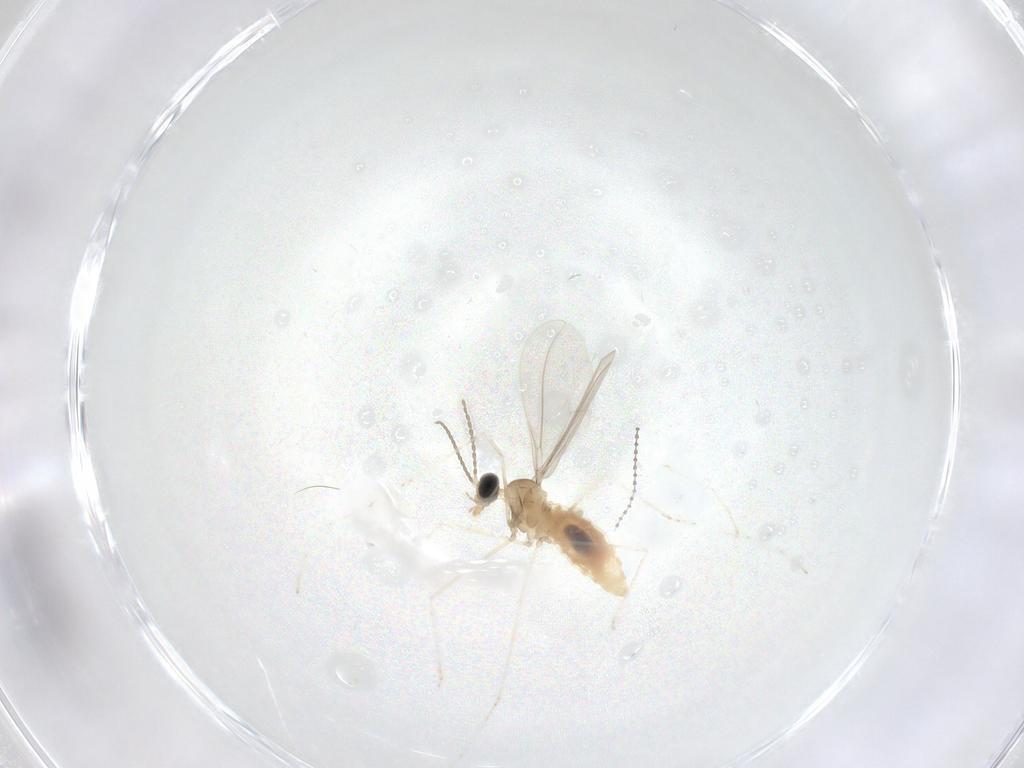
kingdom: Animalia
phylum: Arthropoda
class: Insecta
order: Diptera
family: Cecidomyiidae
